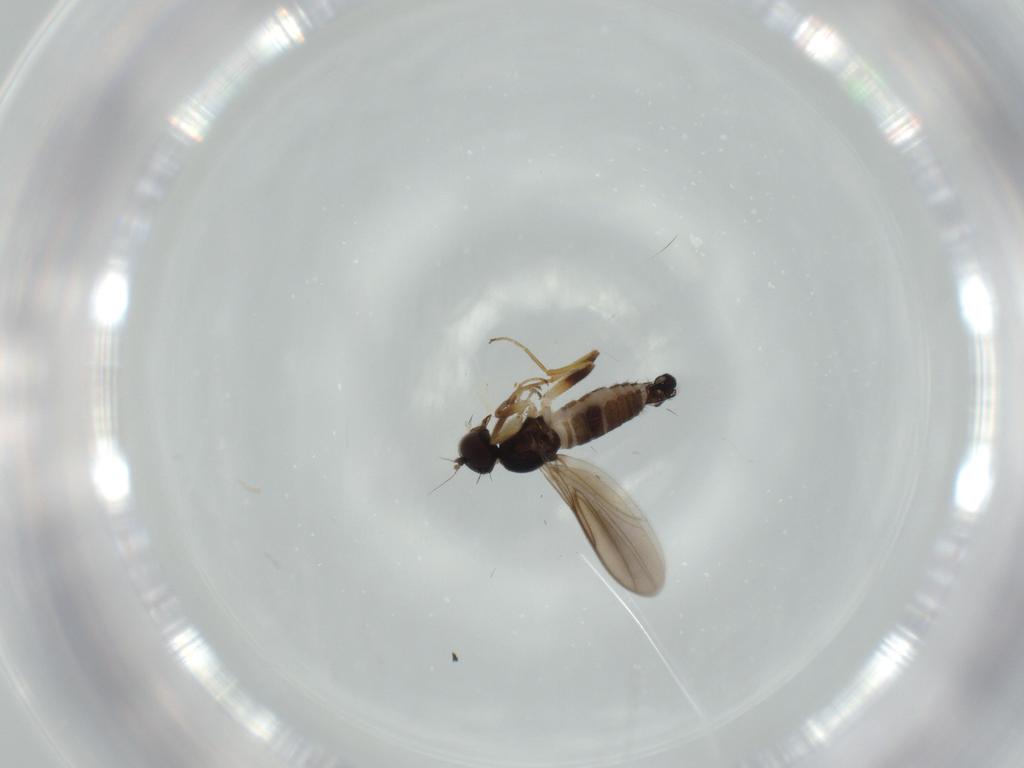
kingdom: Animalia
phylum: Arthropoda
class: Insecta
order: Diptera
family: Hybotidae
